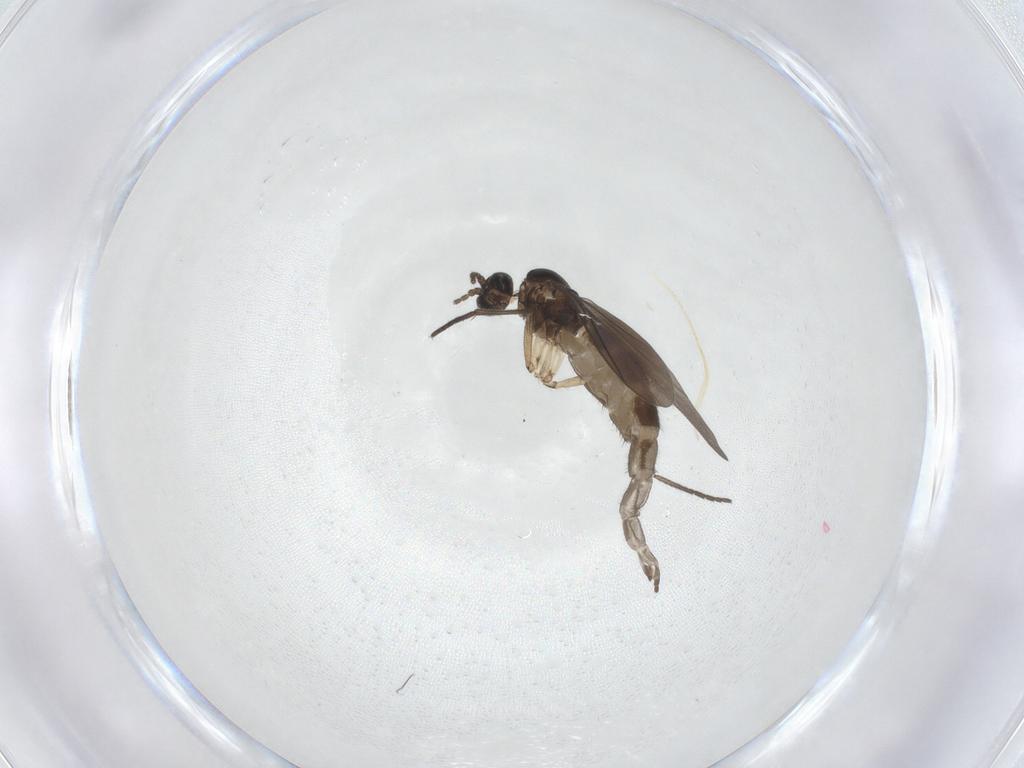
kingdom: Animalia
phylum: Arthropoda
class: Insecta
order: Diptera
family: Sciaridae
